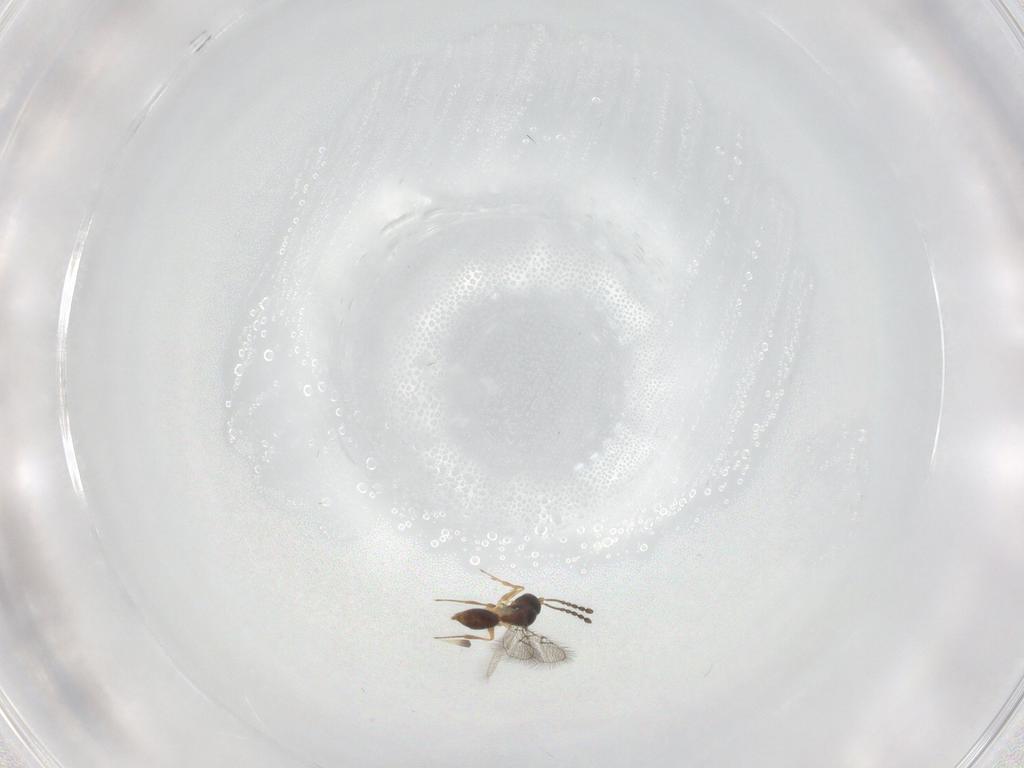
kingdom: Animalia
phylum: Arthropoda
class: Insecta
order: Hymenoptera
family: Figitidae
